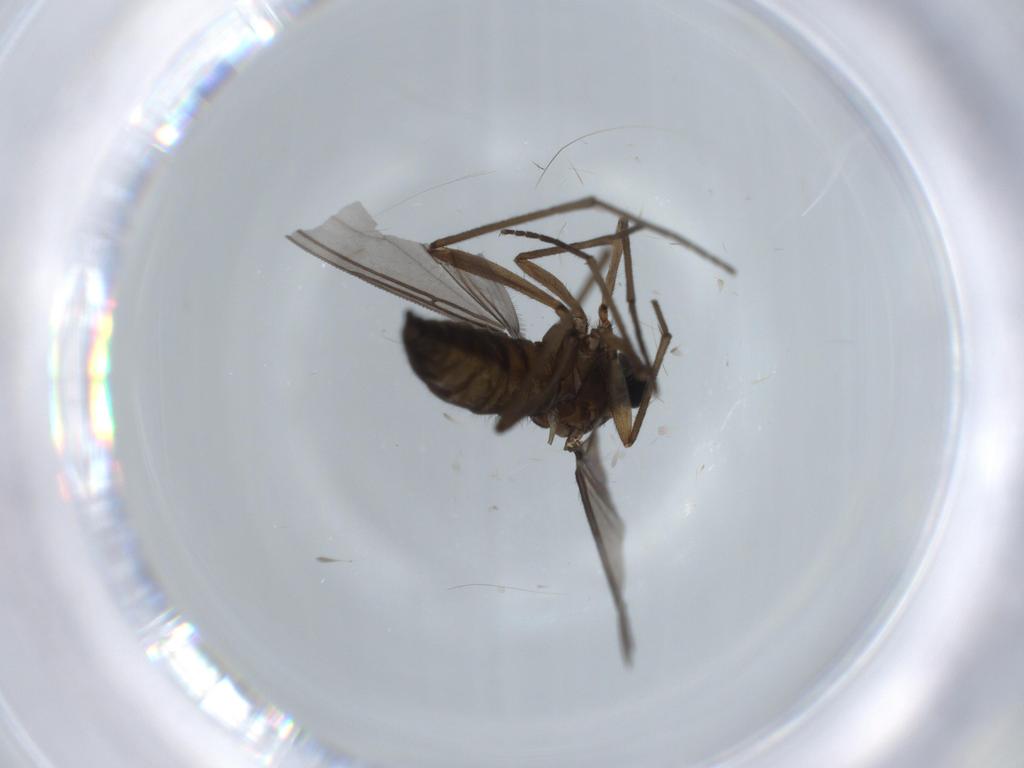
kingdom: Animalia
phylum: Arthropoda
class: Insecta
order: Diptera
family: Sciaridae
